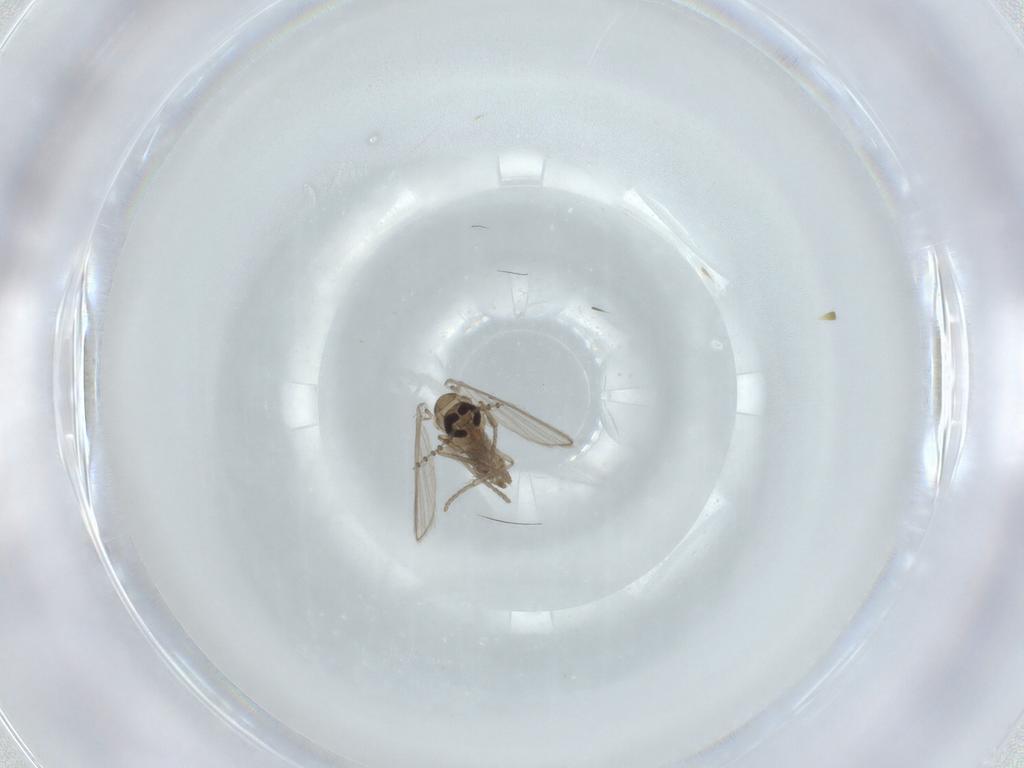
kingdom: Animalia
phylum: Arthropoda
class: Insecta
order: Diptera
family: Psychodidae
